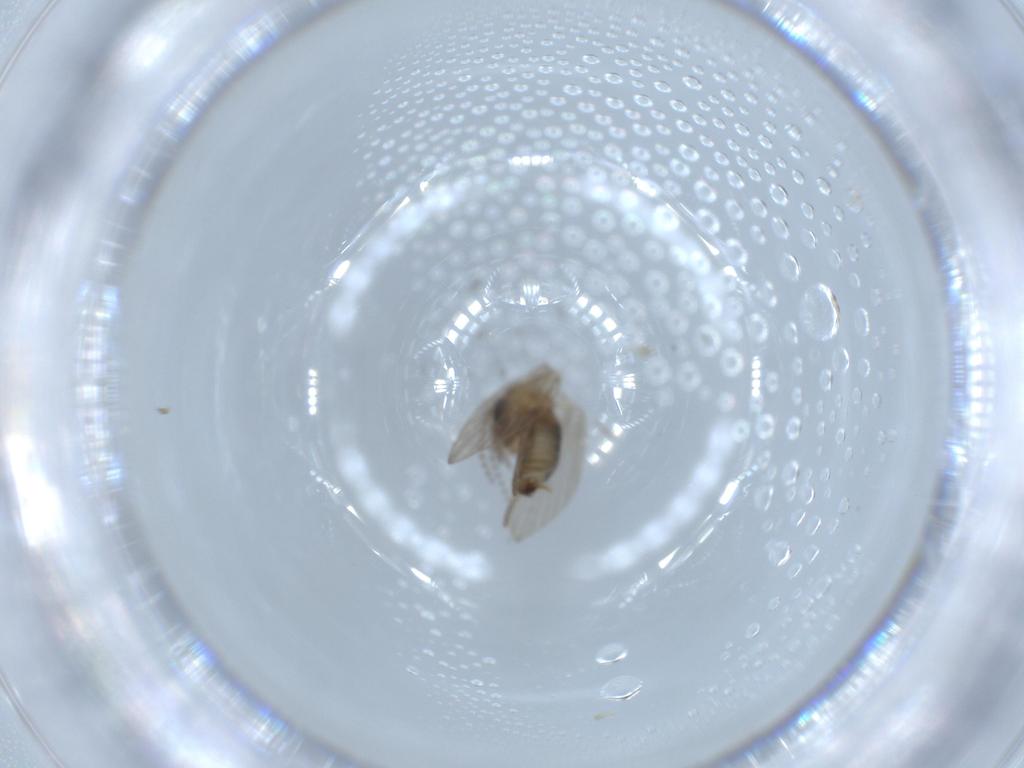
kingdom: Animalia
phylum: Arthropoda
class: Insecta
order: Diptera
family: Psychodidae
